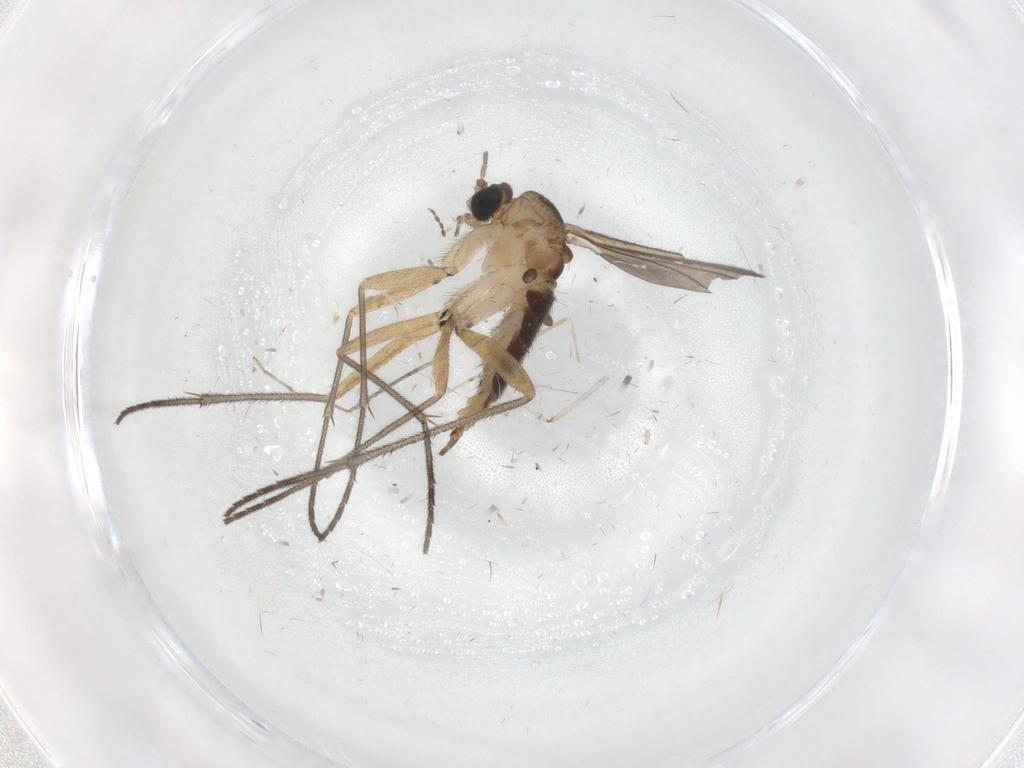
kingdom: Animalia
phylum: Arthropoda
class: Insecta
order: Diptera
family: Sciaridae
